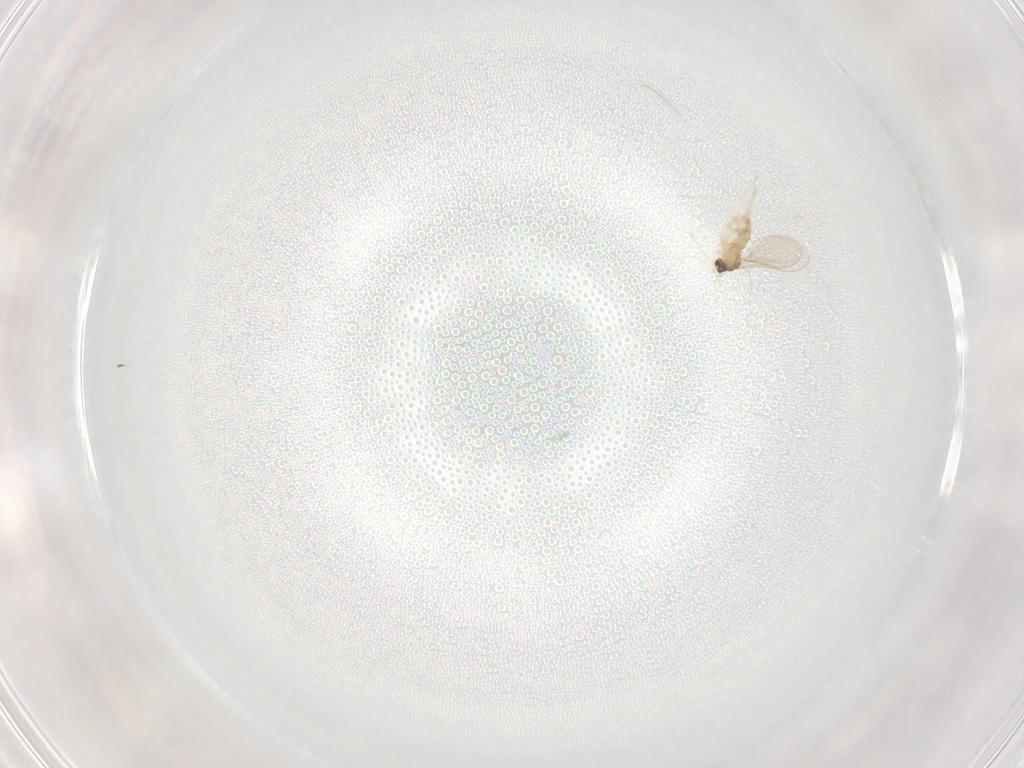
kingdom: Animalia
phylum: Arthropoda
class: Insecta
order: Diptera
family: Cecidomyiidae
